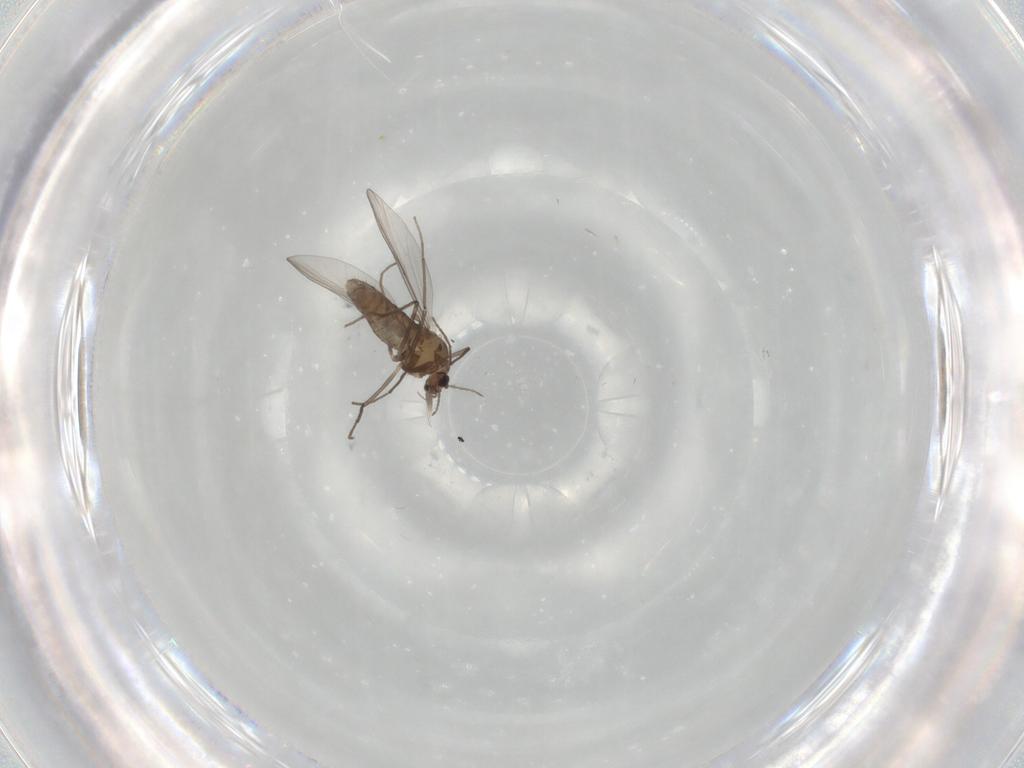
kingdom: Animalia
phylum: Arthropoda
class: Insecta
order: Diptera
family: Chironomidae
